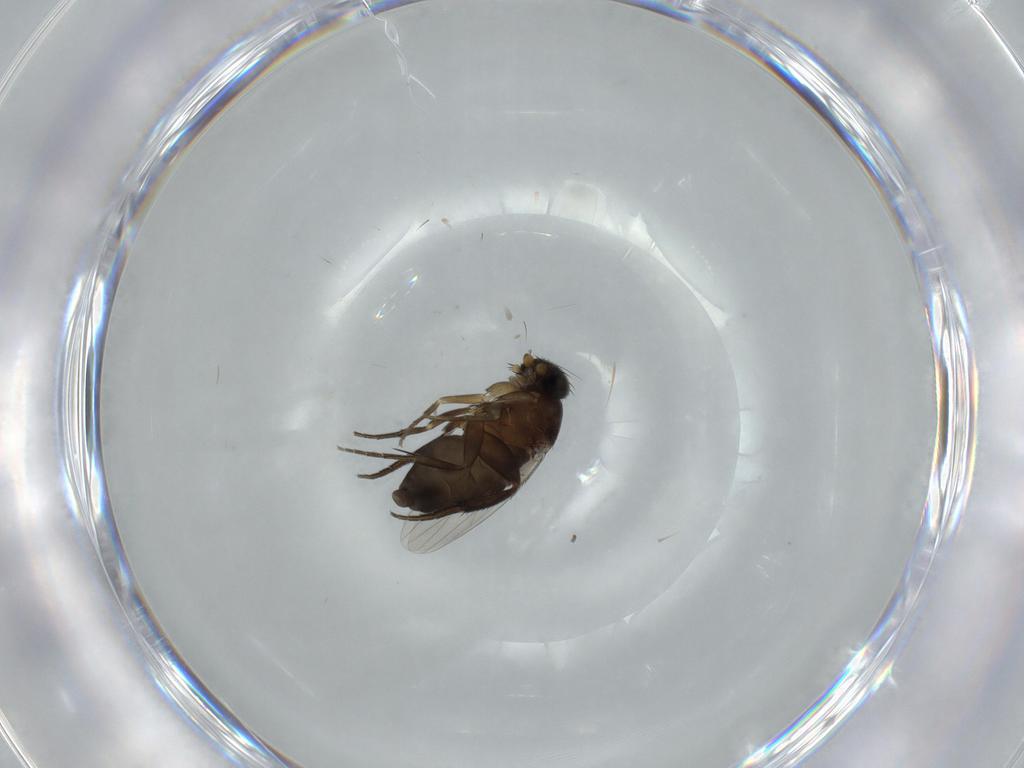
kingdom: Animalia
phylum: Arthropoda
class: Insecta
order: Diptera
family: Phoridae
